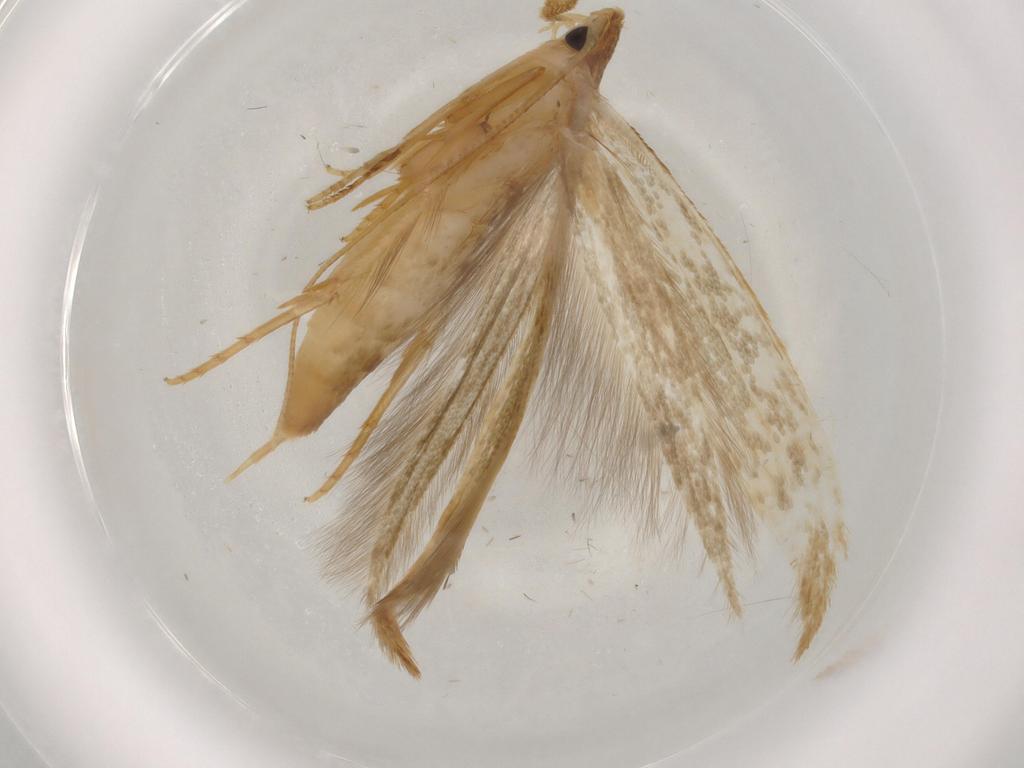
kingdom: Animalia
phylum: Arthropoda
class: Insecta
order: Lepidoptera
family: Tineidae
